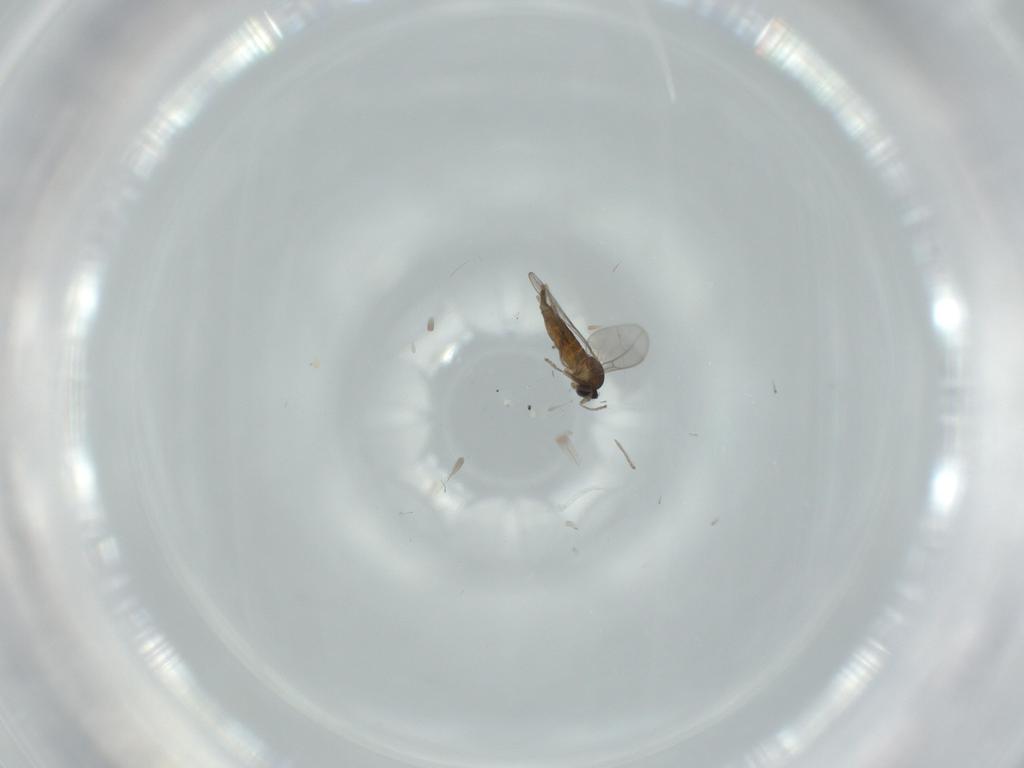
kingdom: Animalia
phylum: Arthropoda
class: Insecta
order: Diptera
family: Cecidomyiidae
